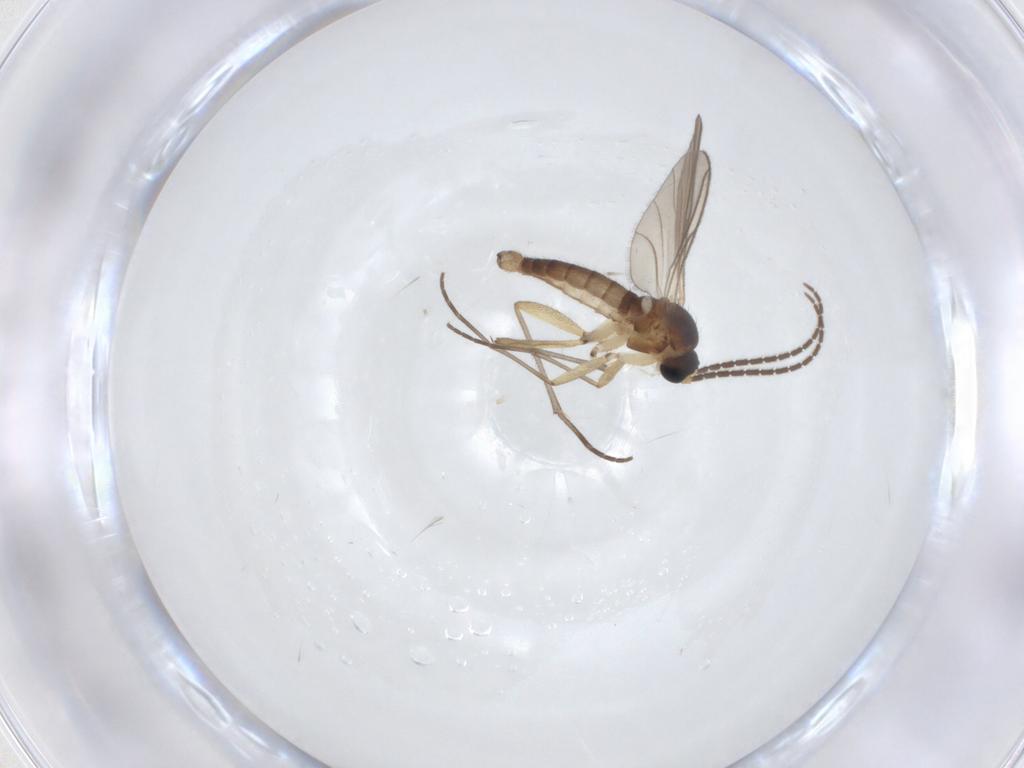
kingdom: Animalia
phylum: Arthropoda
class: Insecta
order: Diptera
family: Sciaridae
